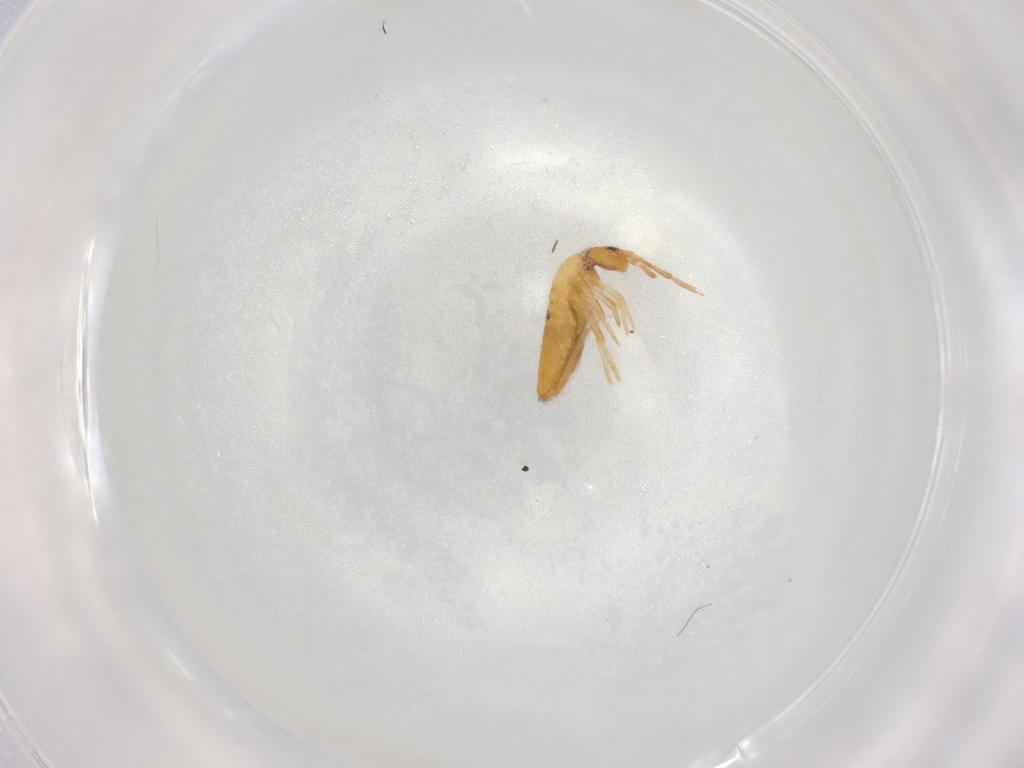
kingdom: Animalia
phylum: Arthropoda
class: Collembola
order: Entomobryomorpha
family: Entomobryidae
